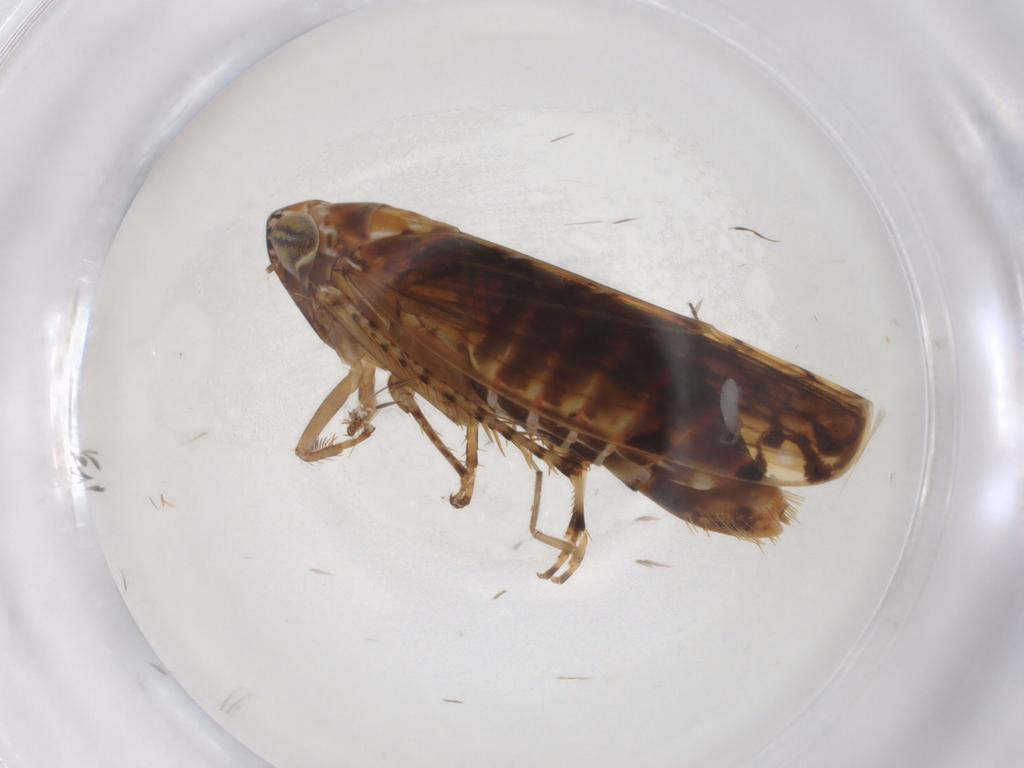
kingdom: Animalia
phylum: Arthropoda
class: Insecta
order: Hemiptera
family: Cicadellidae
